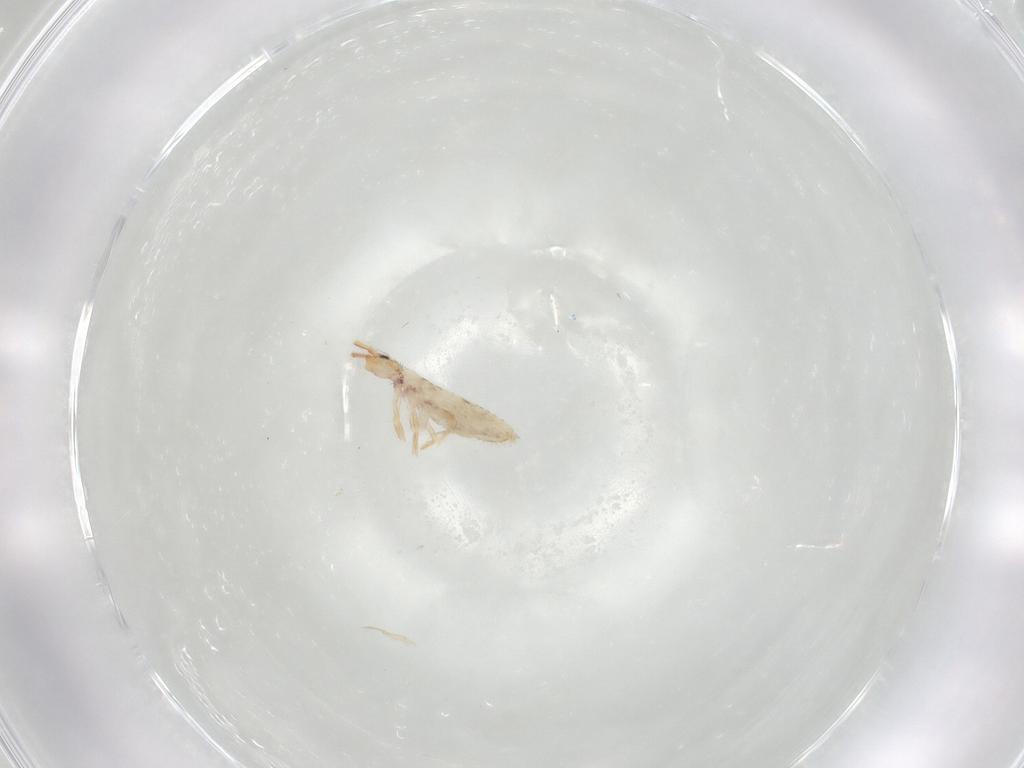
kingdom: Animalia
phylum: Arthropoda
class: Collembola
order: Entomobryomorpha
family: Entomobryidae
